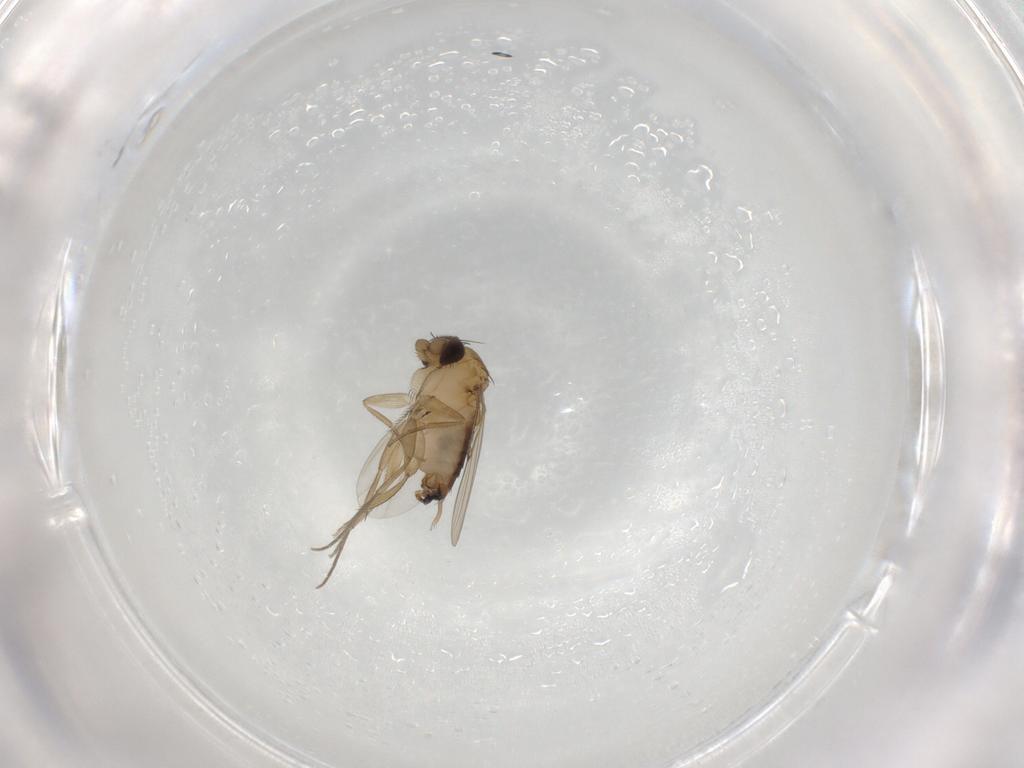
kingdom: Animalia
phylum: Arthropoda
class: Insecta
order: Diptera
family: Phoridae
